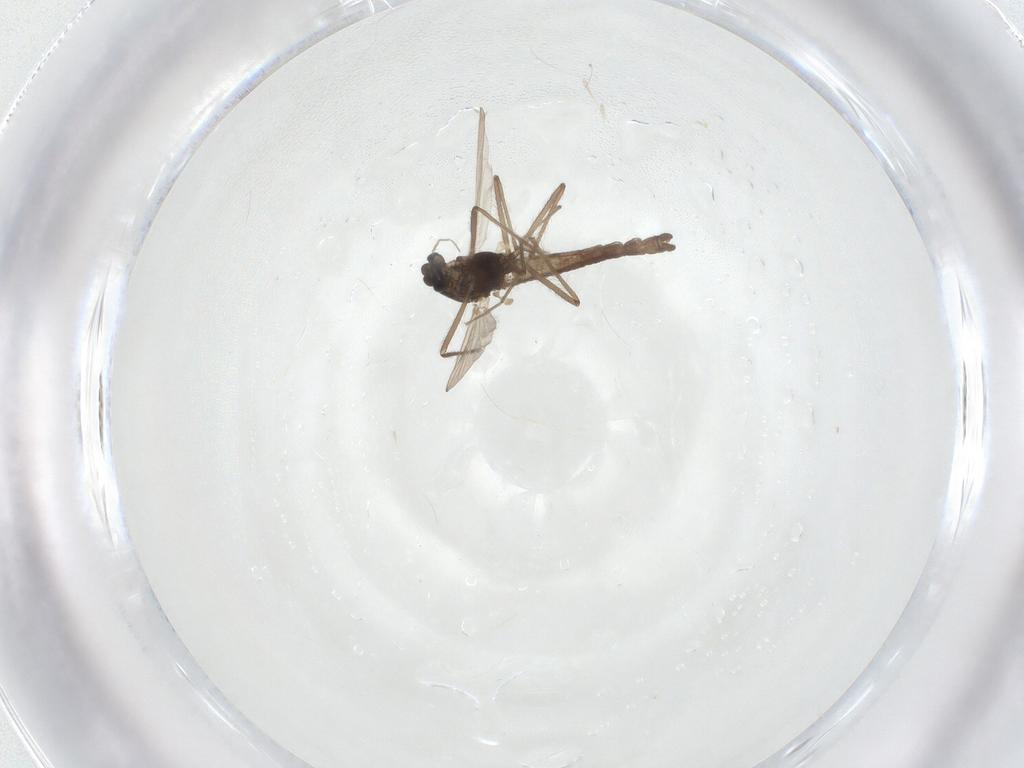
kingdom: Animalia
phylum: Arthropoda
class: Insecta
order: Diptera
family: Chironomidae
